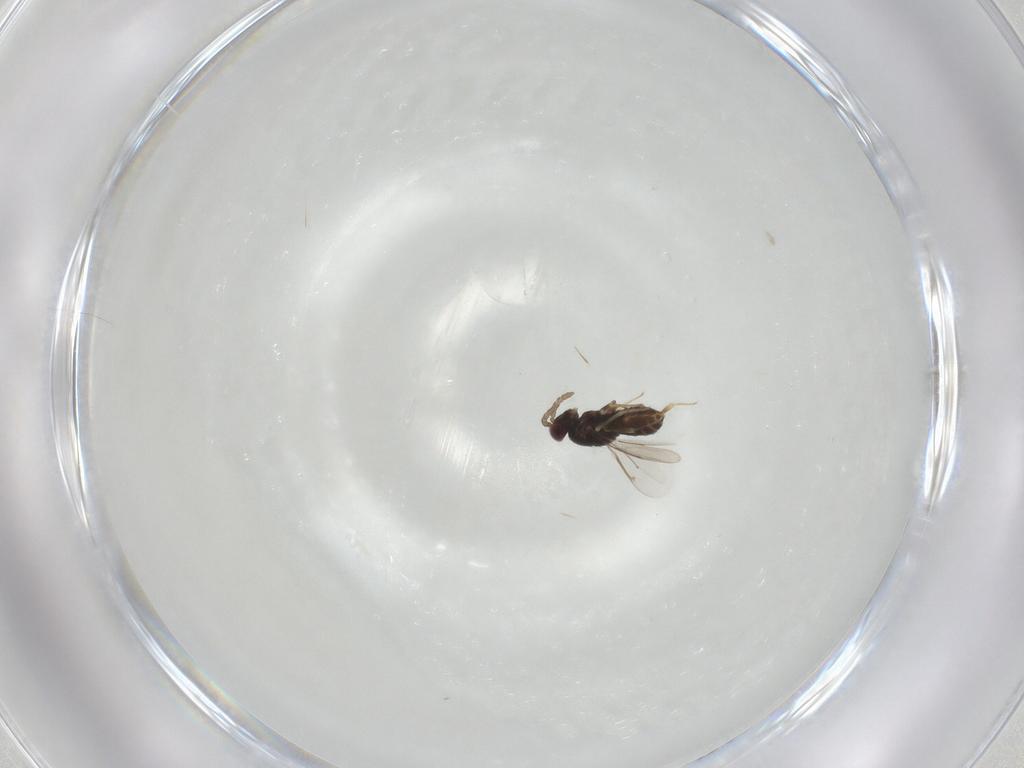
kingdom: Animalia
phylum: Arthropoda
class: Insecta
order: Hymenoptera
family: Aphelinidae
